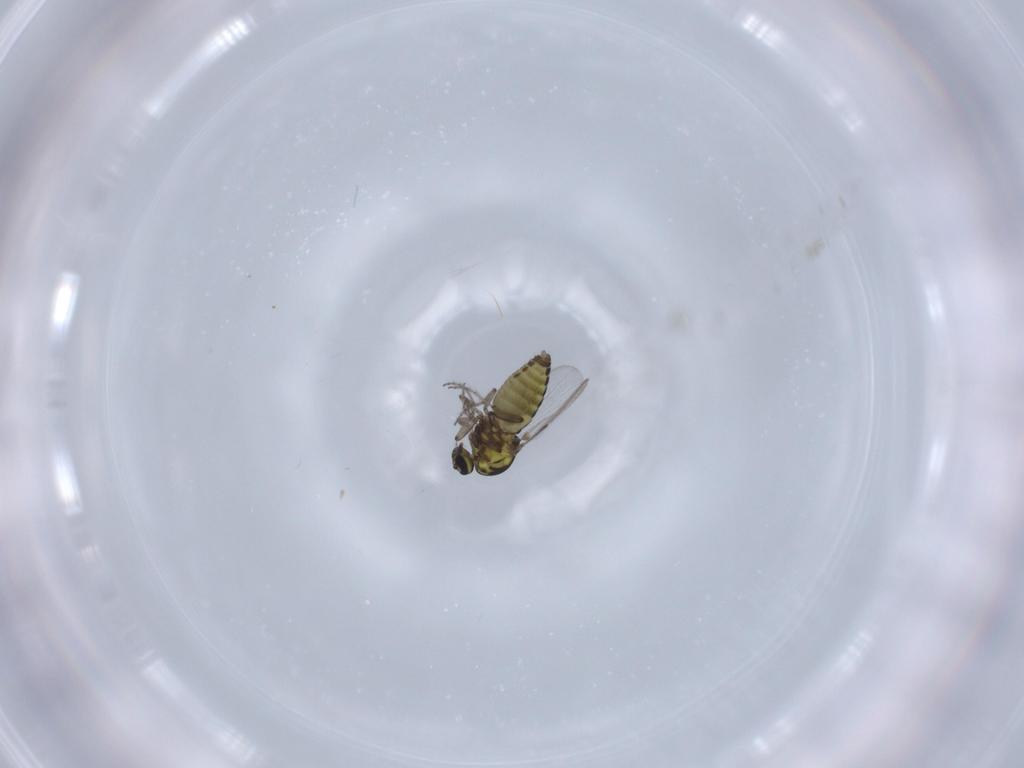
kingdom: Animalia
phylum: Arthropoda
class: Insecta
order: Diptera
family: Ceratopogonidae
